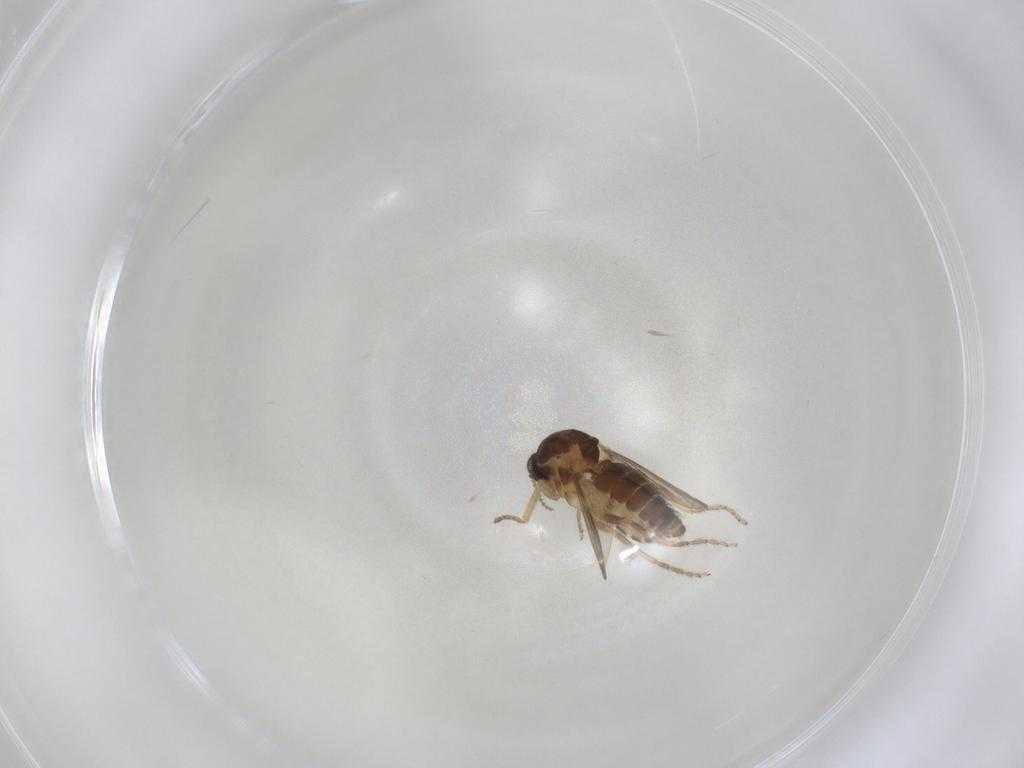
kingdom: Animalia
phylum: Arthropoda
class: Insecta
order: Diptera
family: Ceratopogonidae
